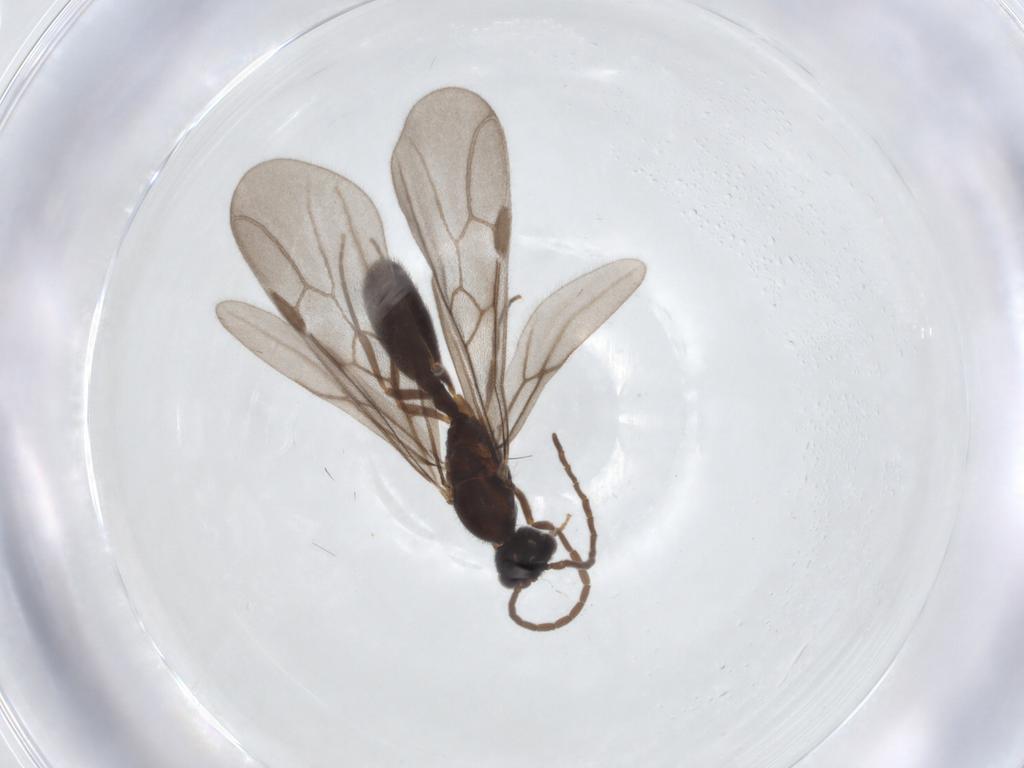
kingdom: Animalia
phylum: Arthropoda
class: Insecta
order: Hymenoptera
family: Formicidae
